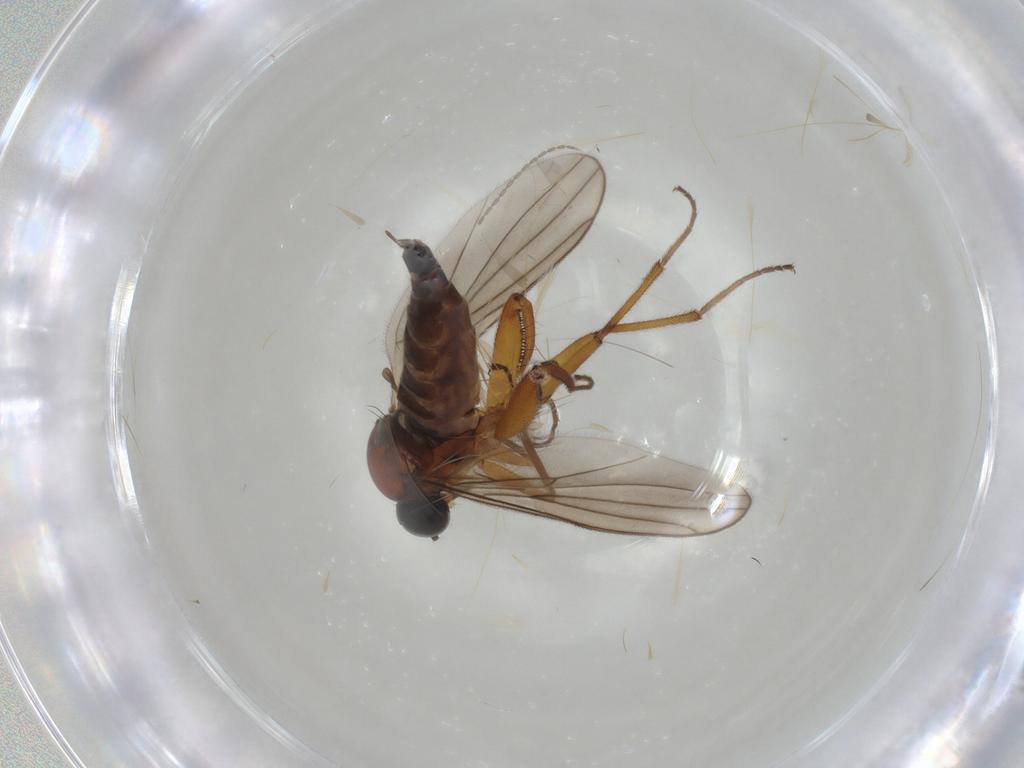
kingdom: Animalia
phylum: Arthropoda
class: Insecta
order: Diptera
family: Hybotidae
